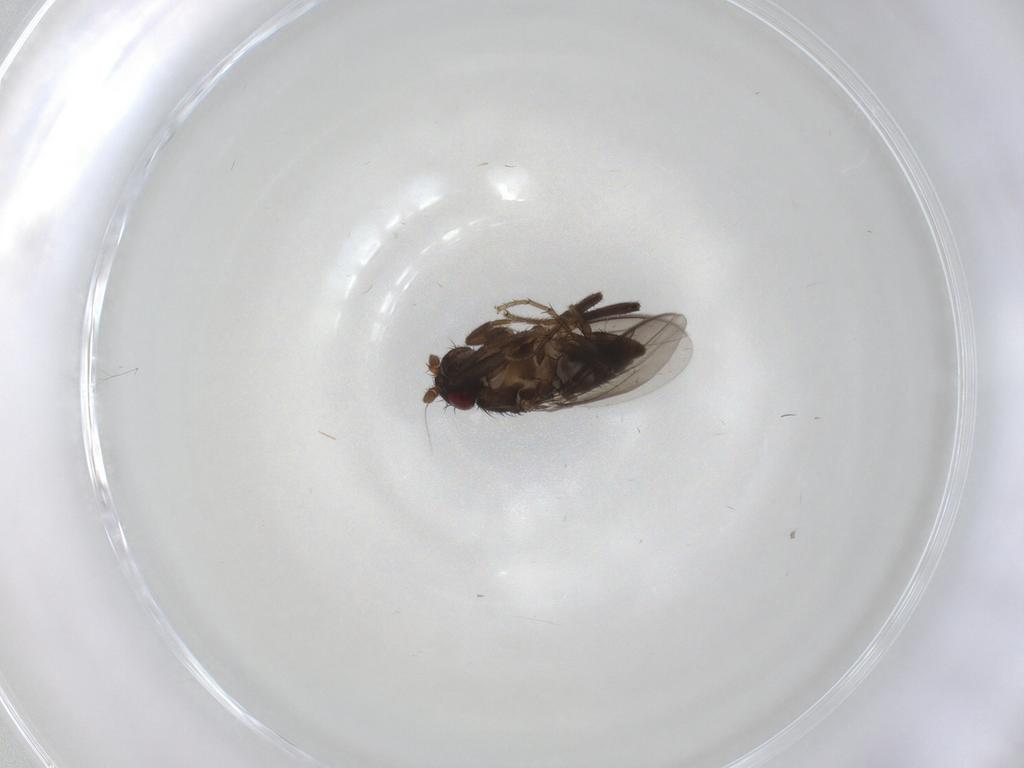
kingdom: Animalia
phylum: Arthropoda
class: Insecta
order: Diptera
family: Sphaeroceridae
